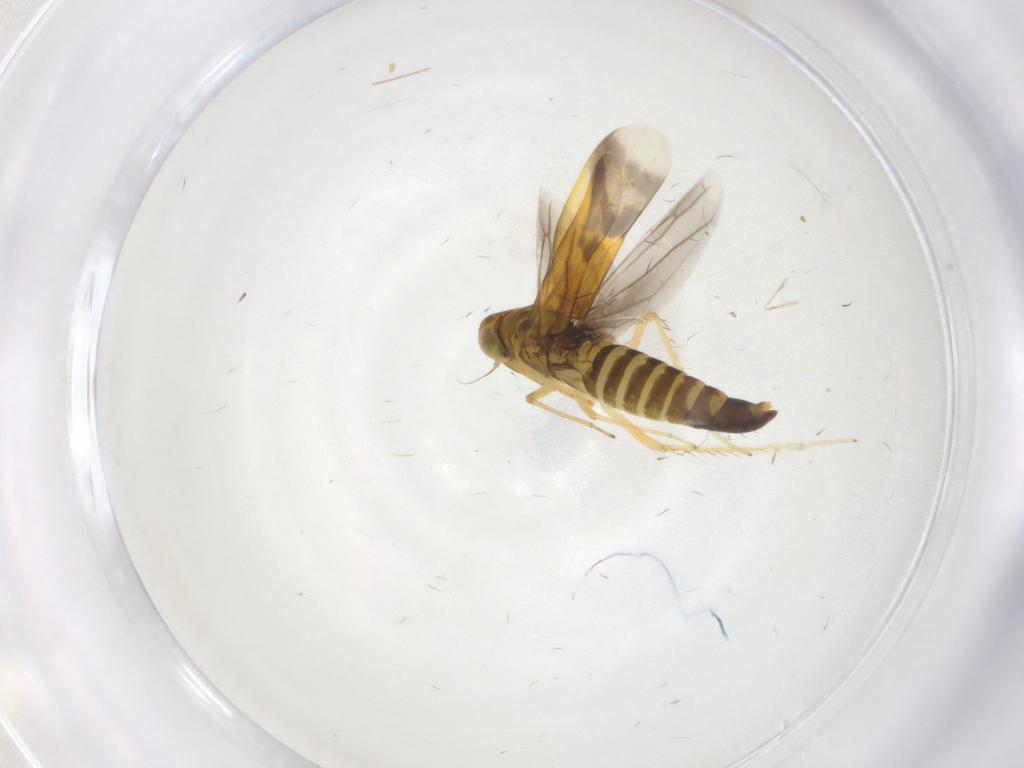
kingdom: Animalia
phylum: Arthropoda
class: Insecta
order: Hemiptera
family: Cicadellidae
